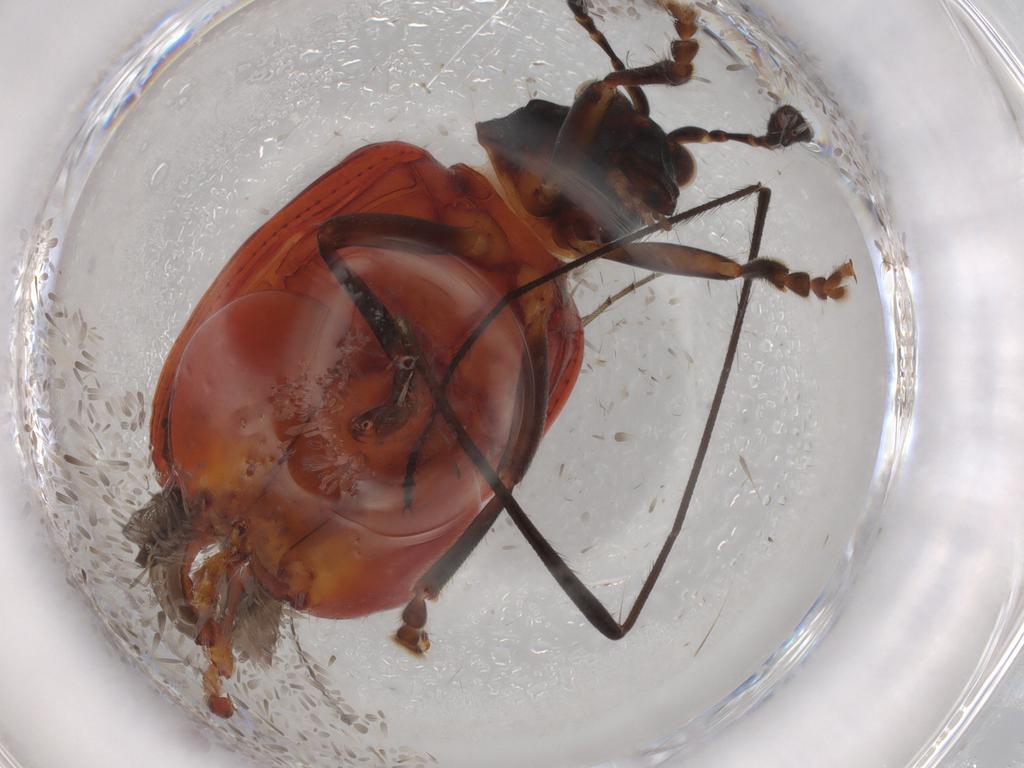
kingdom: Animalia
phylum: Arthropoda
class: Insecta
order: Coleoptera
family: Chrysomelidae
